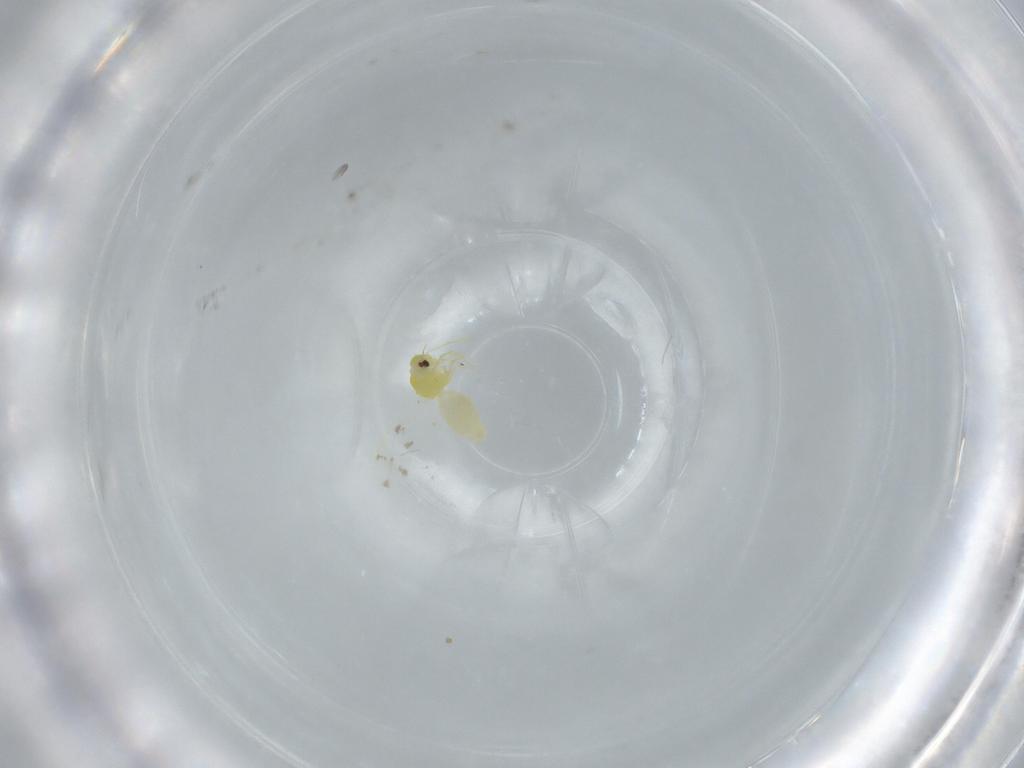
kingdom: Animalia
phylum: Arthropoda
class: Insecta
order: Hemiptera
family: Aleyrodidae
